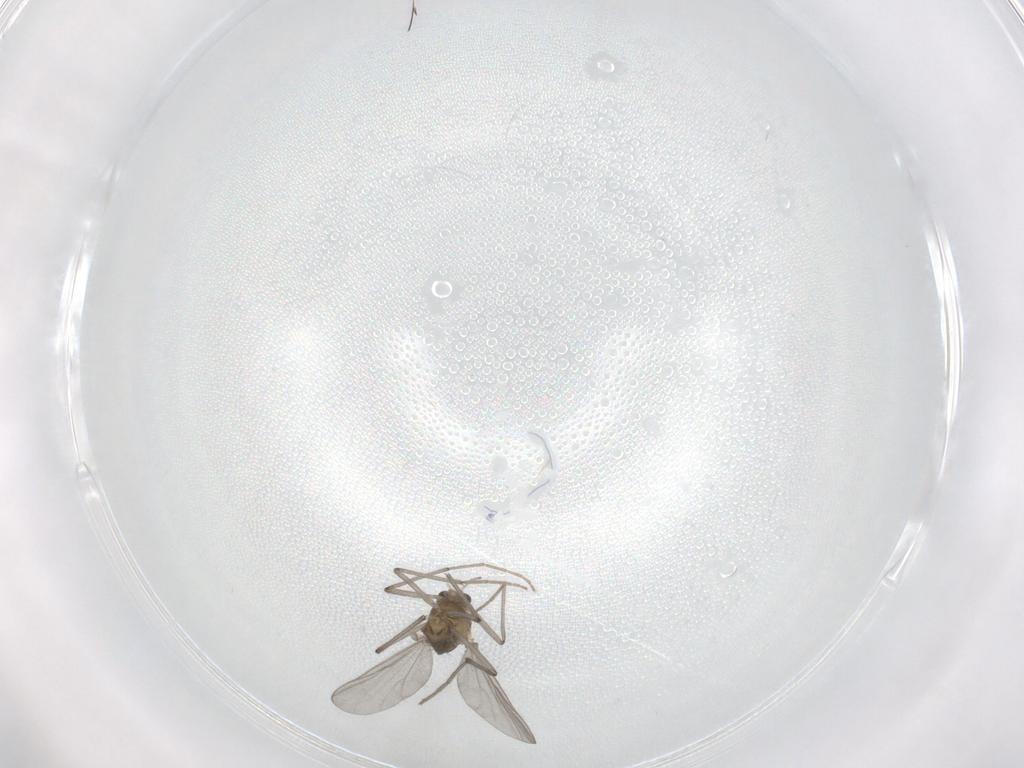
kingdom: Animalia
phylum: Arthropoda
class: Insecta
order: Diptera
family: Chironomidae
